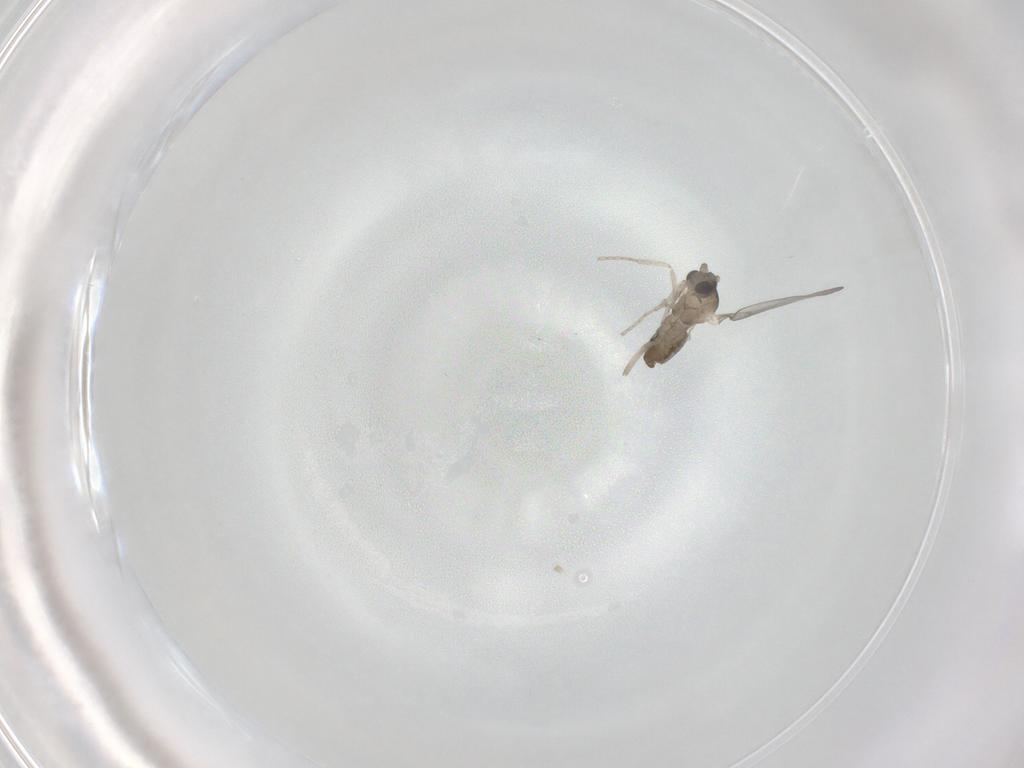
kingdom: Animalia
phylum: Arthropoda
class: Insecta
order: Diptera
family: Cecidomyiidae
